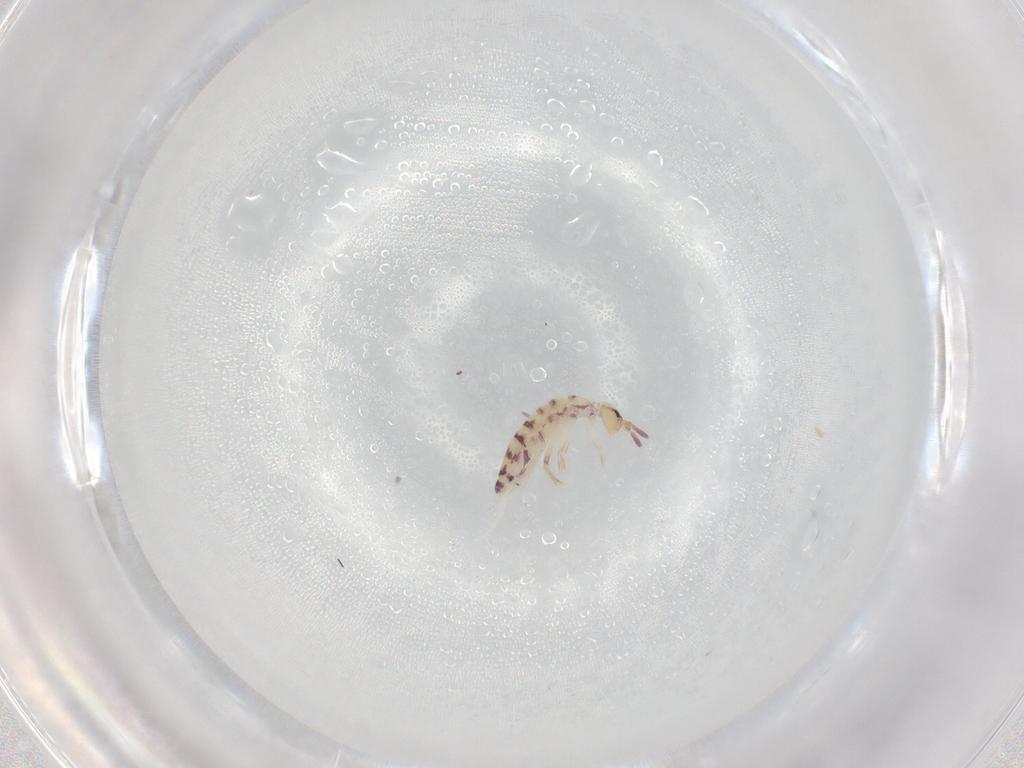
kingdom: Animalia
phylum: Arthropoda
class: Collembola
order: Entomobryomorpha
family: Entomobryidae
